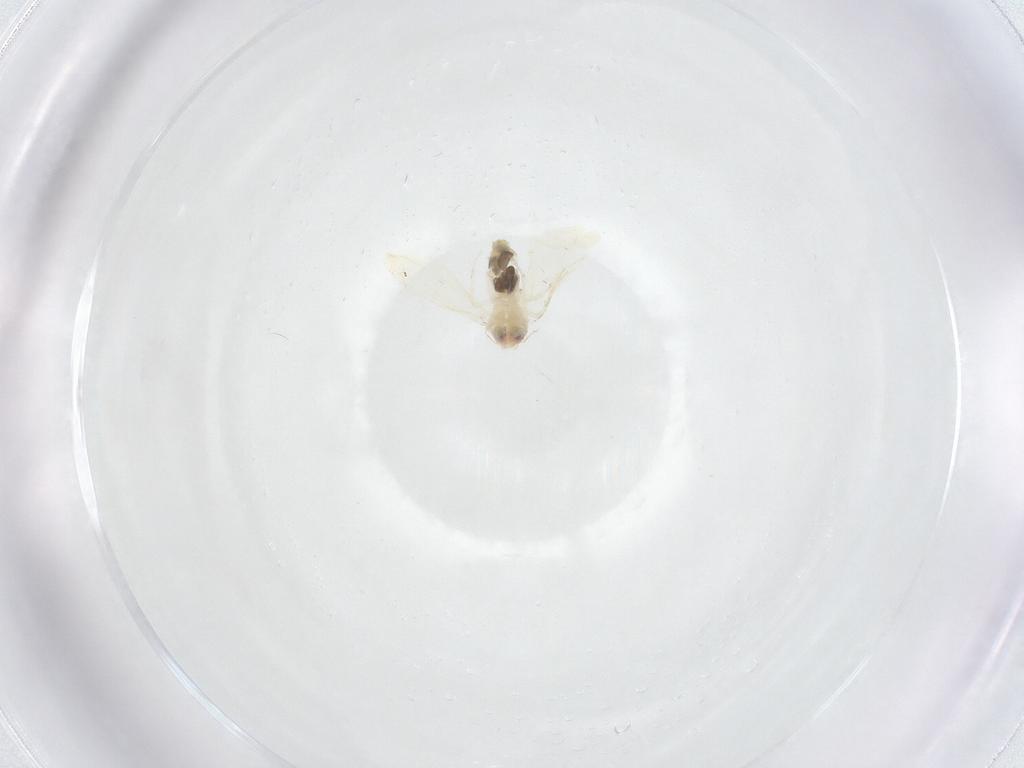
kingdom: Animalia
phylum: Arthropoda
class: Insecta
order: Hemiptera
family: Aleyrodidae
